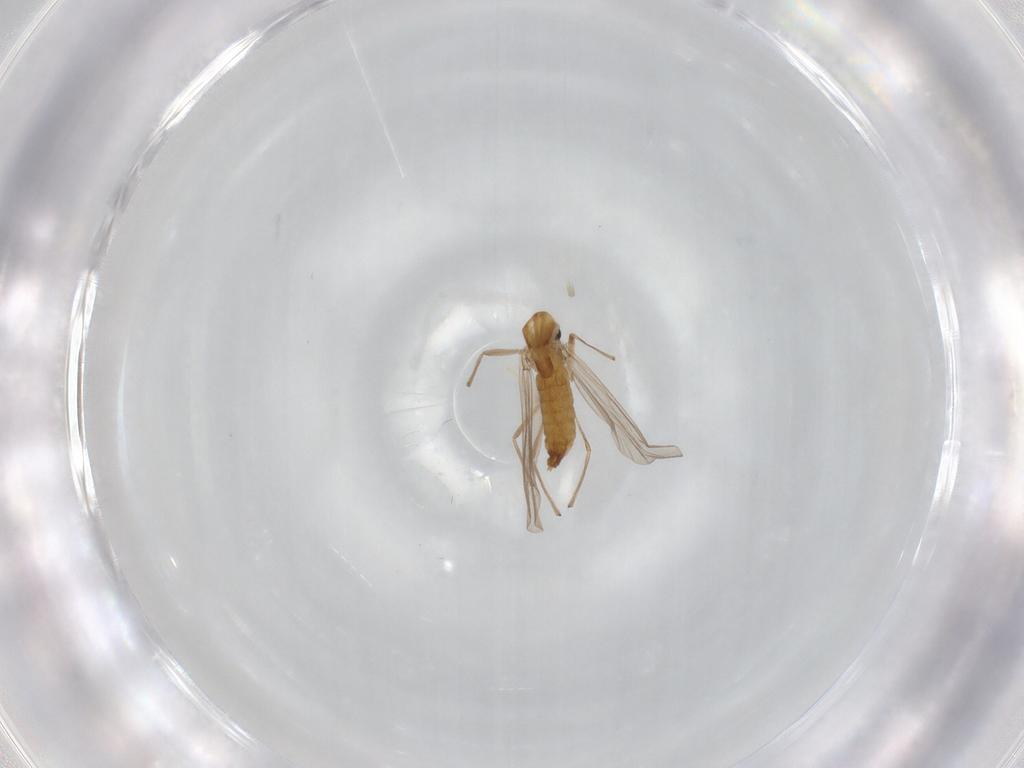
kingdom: Animalia
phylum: Arthropoda
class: Insecta
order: Diptera
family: Chironomidae
